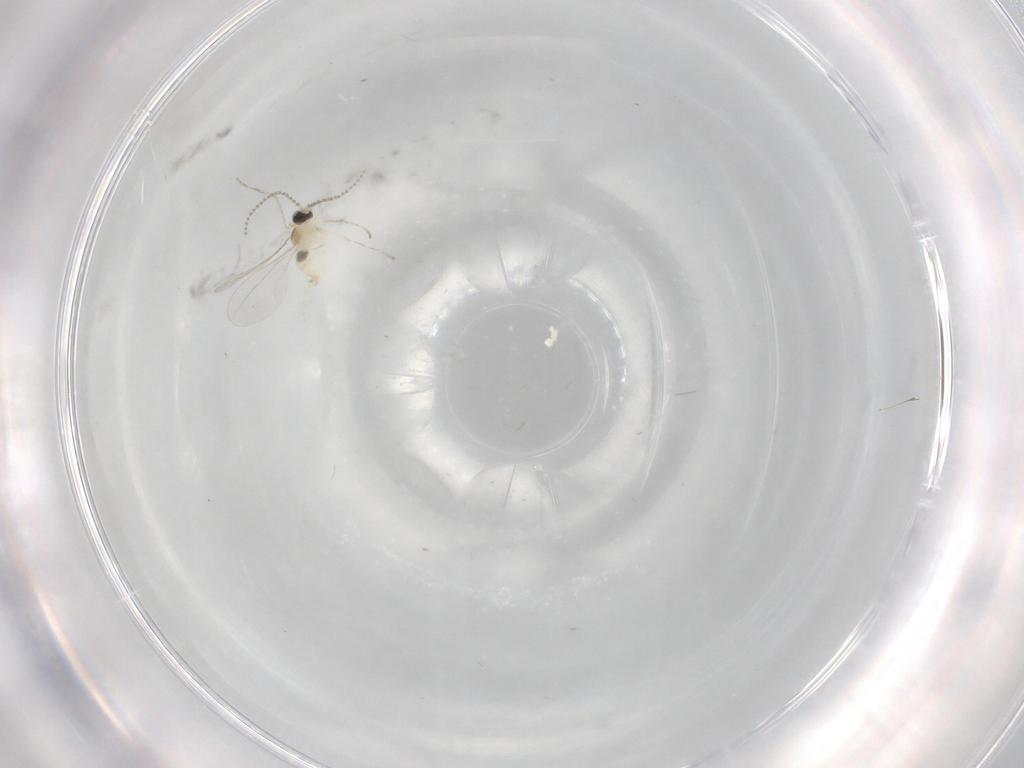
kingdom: Animalia
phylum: Arthropoda
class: Insecta
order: Diptera
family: Cecidomyiidae
